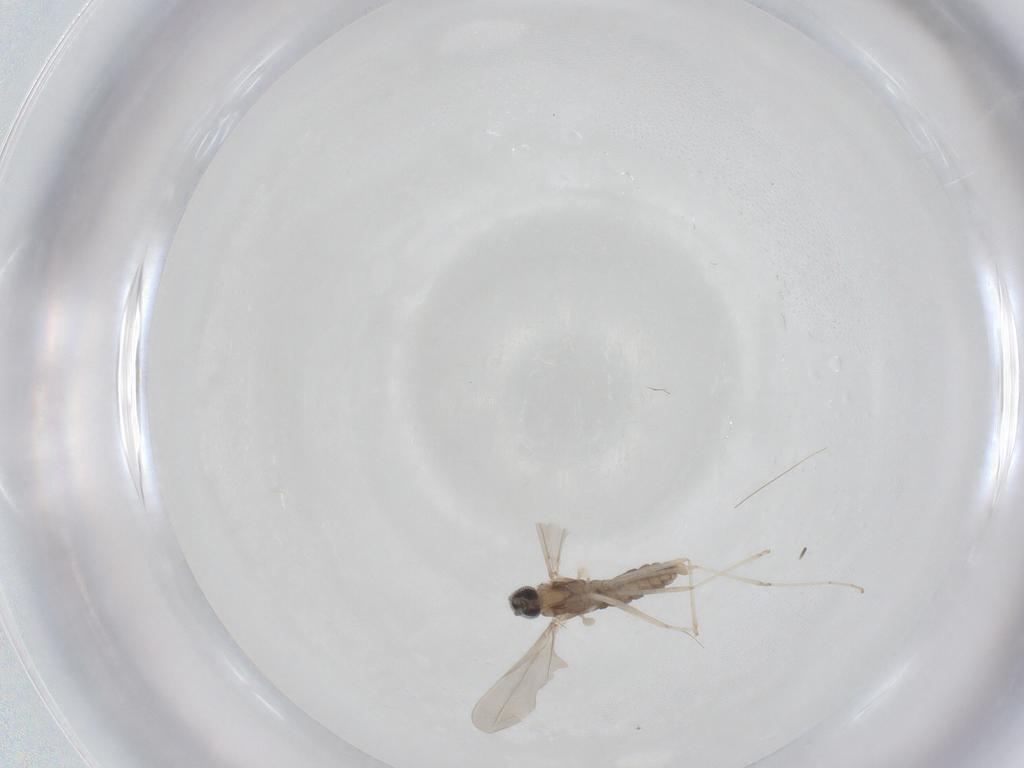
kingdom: Animalia
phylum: Arthropoda
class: Insecta
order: Diptera
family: Cecidomyiidae
